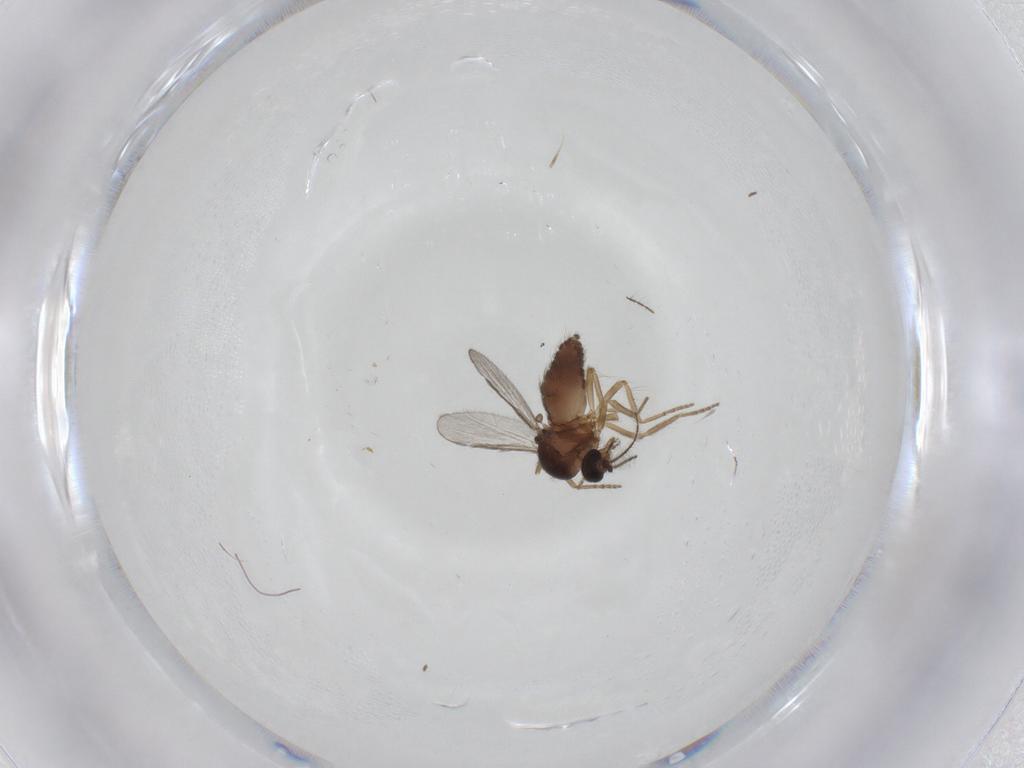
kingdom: Animalia
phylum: Arthropoda
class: Insecta
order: Diptera
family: Ceratopogonidae
